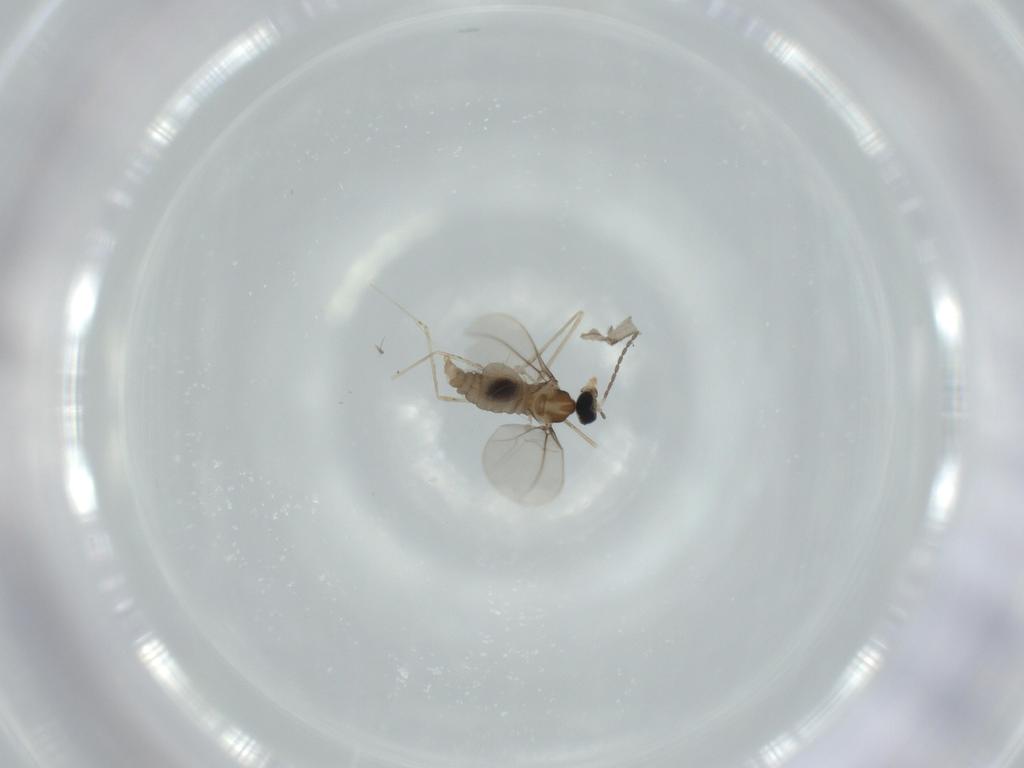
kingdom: Animalia
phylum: Arthropoda
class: Insecta
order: Diptera
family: Phoridae
